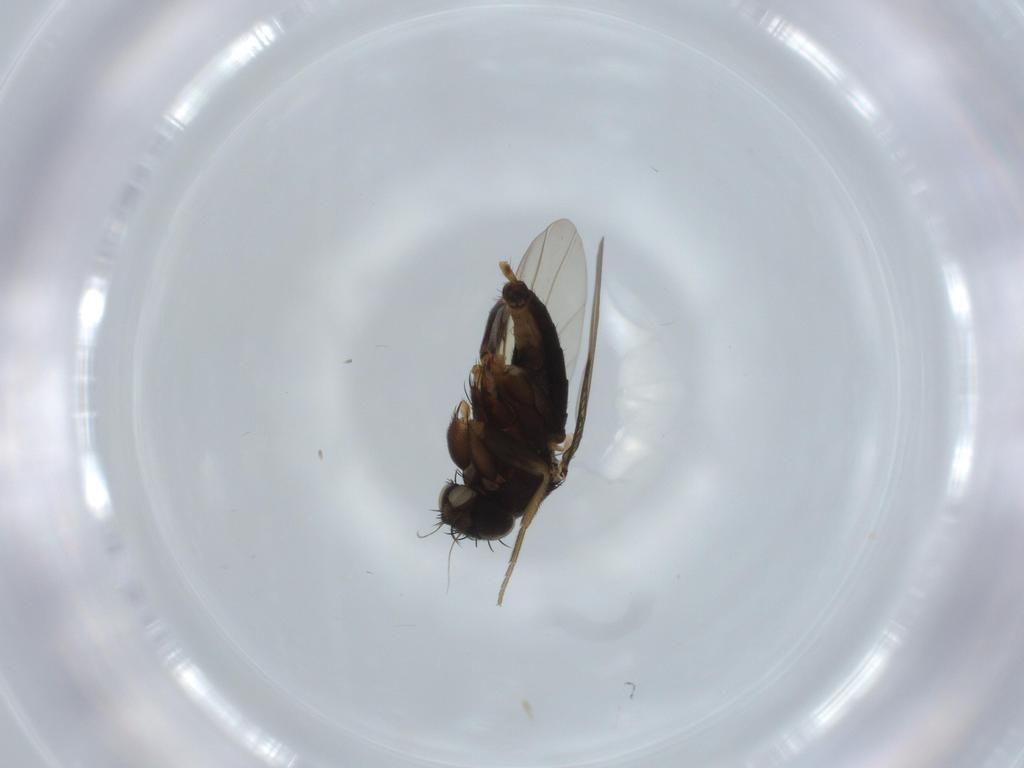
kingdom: Animalia
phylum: Arthropoda
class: Insecta
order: Diptera
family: Phoridae
